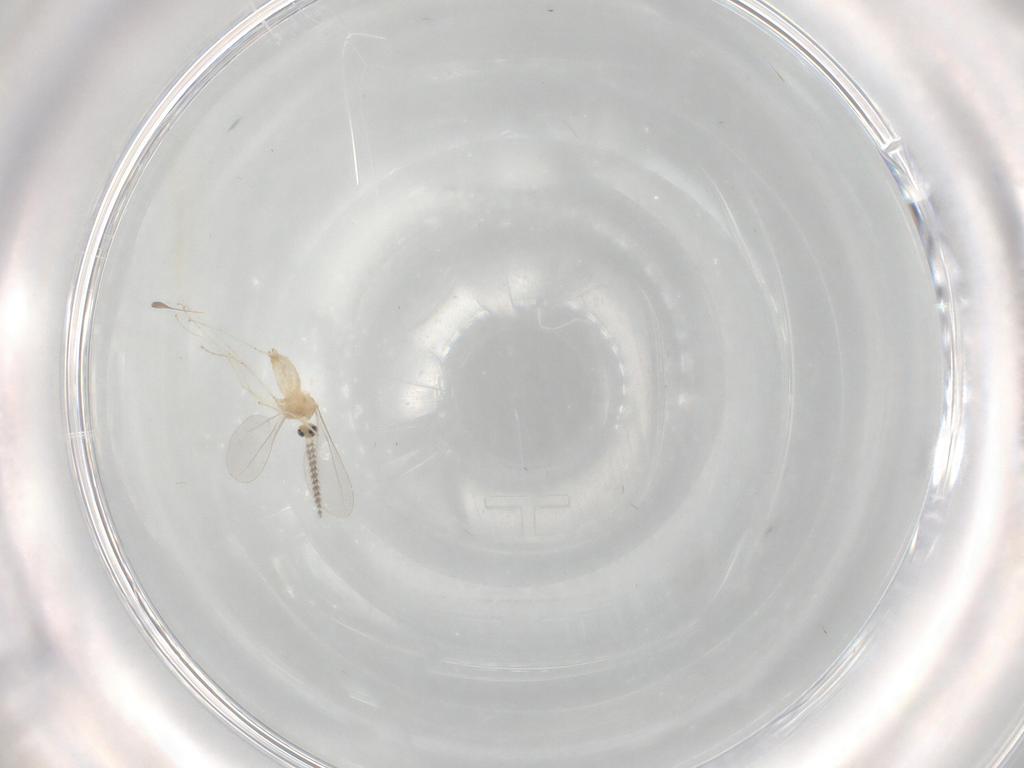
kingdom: Animalia
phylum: Arthropoda
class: Insecta
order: Diptera
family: Cecidomyiidae
